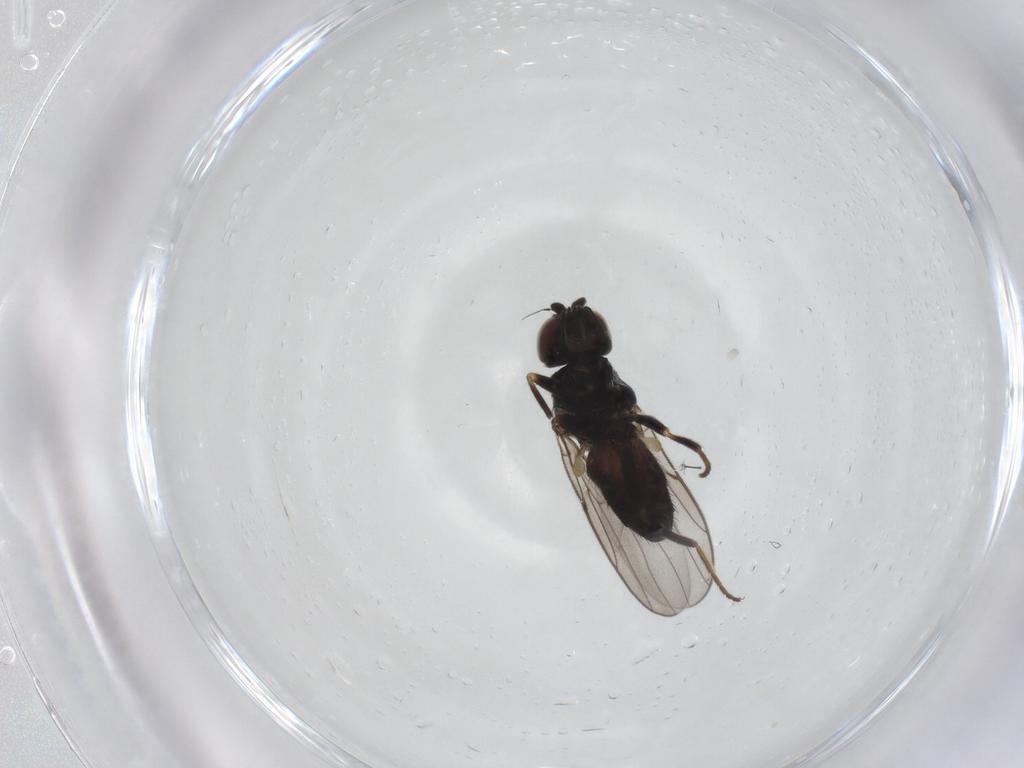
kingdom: Animalia
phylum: Arthropoda
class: Insecta
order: Diptera
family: Chloropidae
